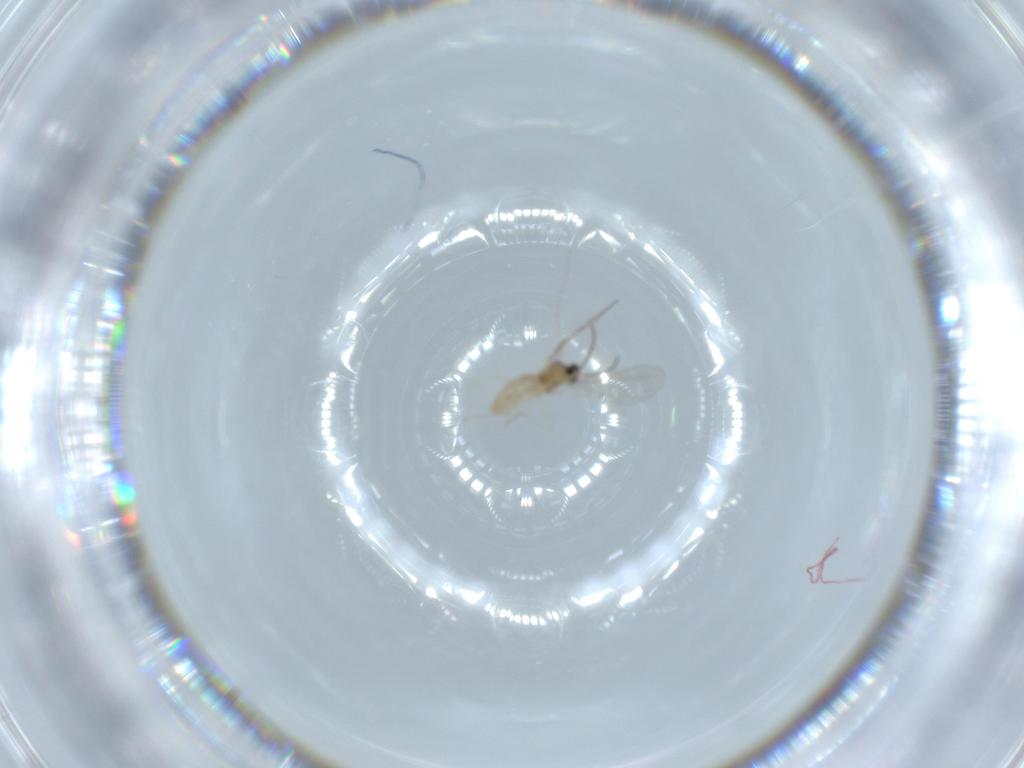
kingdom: Animalia
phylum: Arthropoda
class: Insecta
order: Diptera
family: Cecidomyiidae
